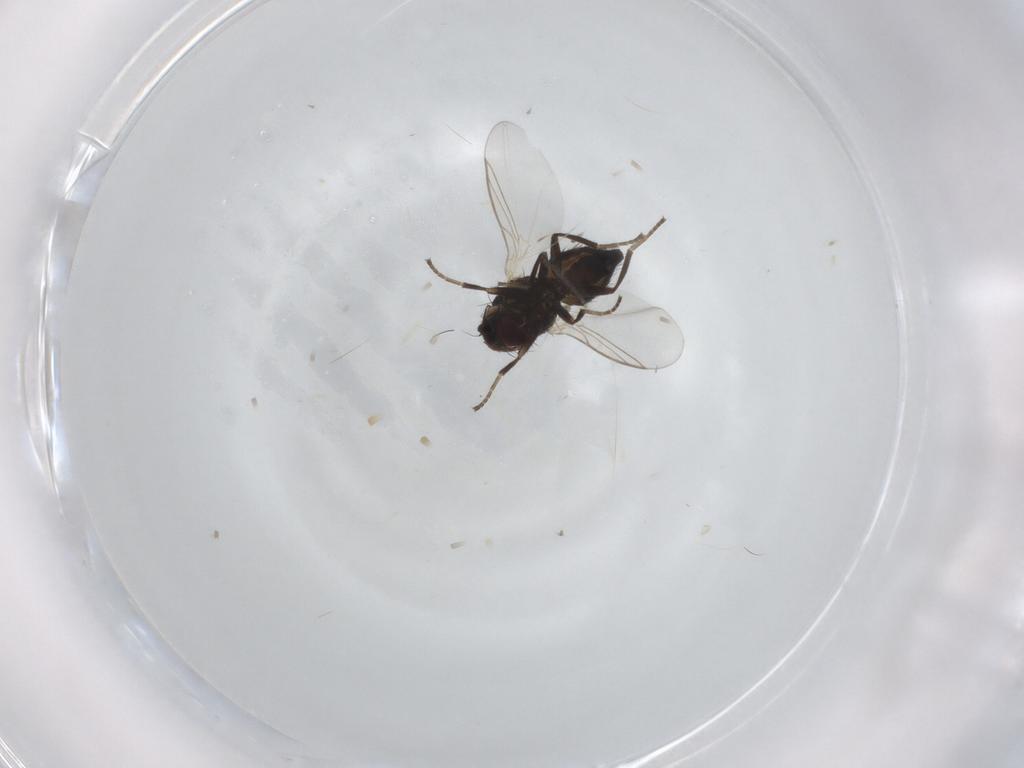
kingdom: Animalia
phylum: Arthropoda
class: Insecta
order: Diptera
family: Agromyzidae
